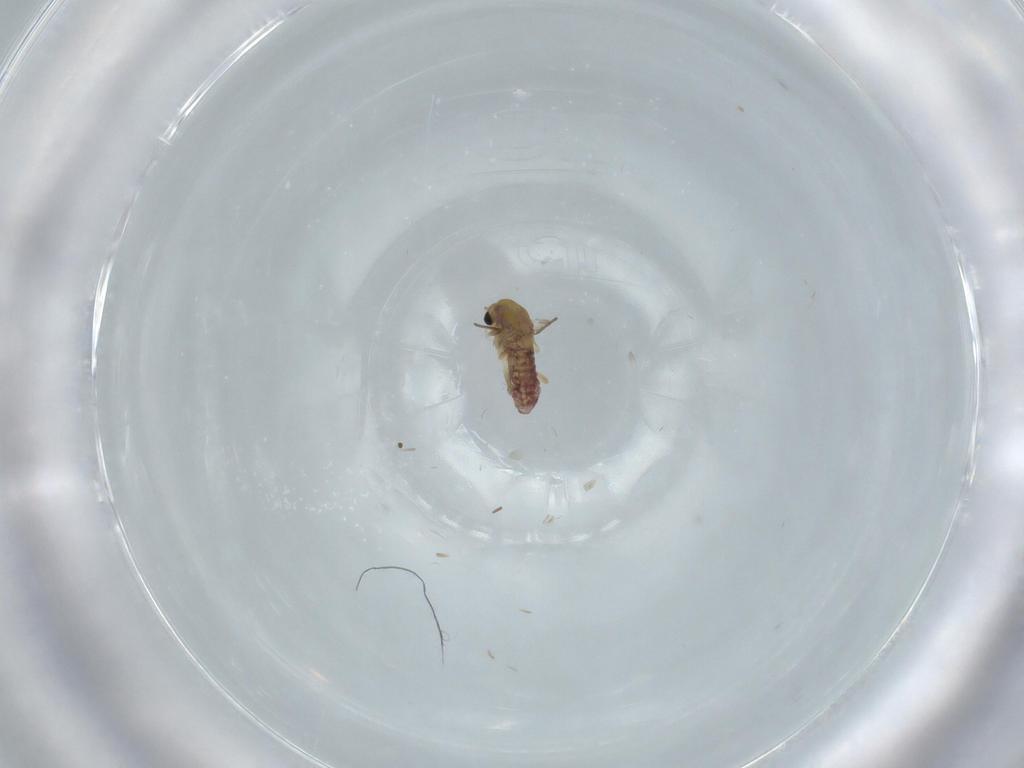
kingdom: Animalia
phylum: Arthropoda
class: Insecta
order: Diptera
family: Chironomidae
